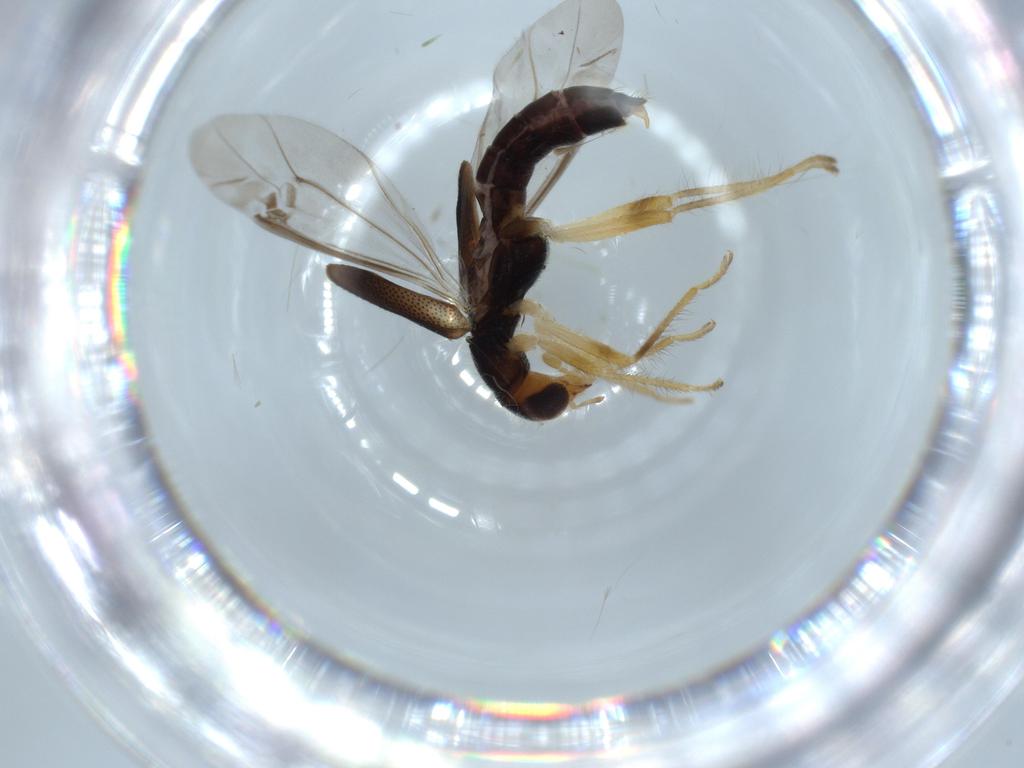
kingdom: Animalia
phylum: Arthropoda
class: Insecta
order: Coleoptera
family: Cleridae
